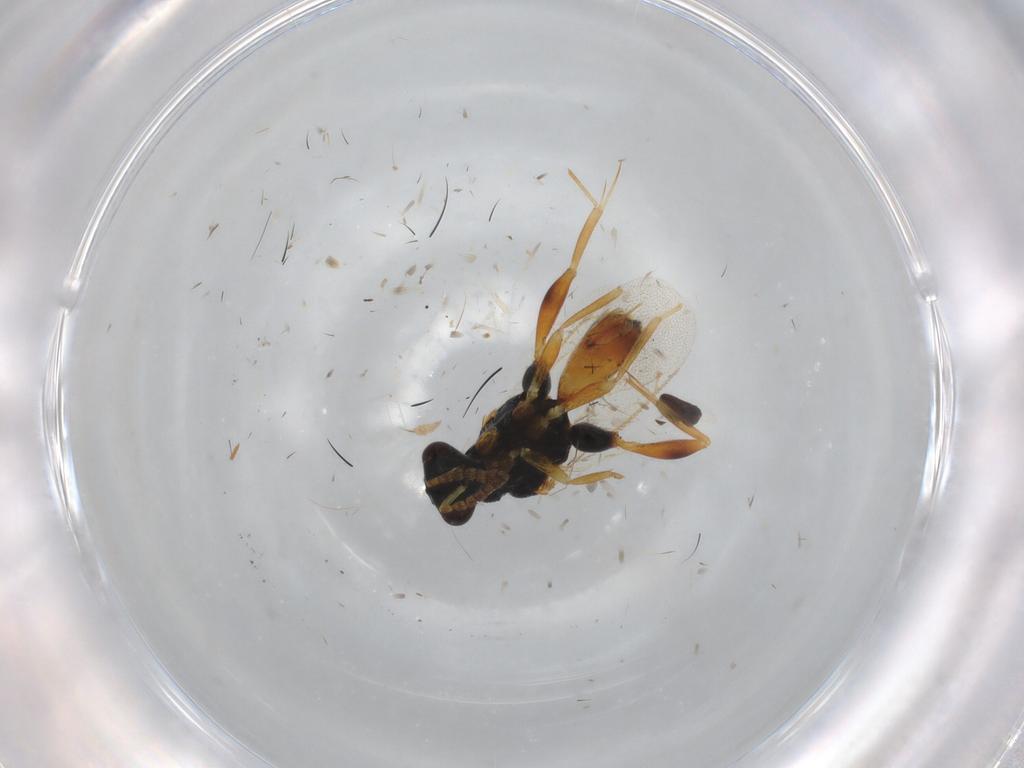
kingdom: Animalia
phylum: Arthropoda
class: Insecta
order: Hymenoptera
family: Eulophidae
